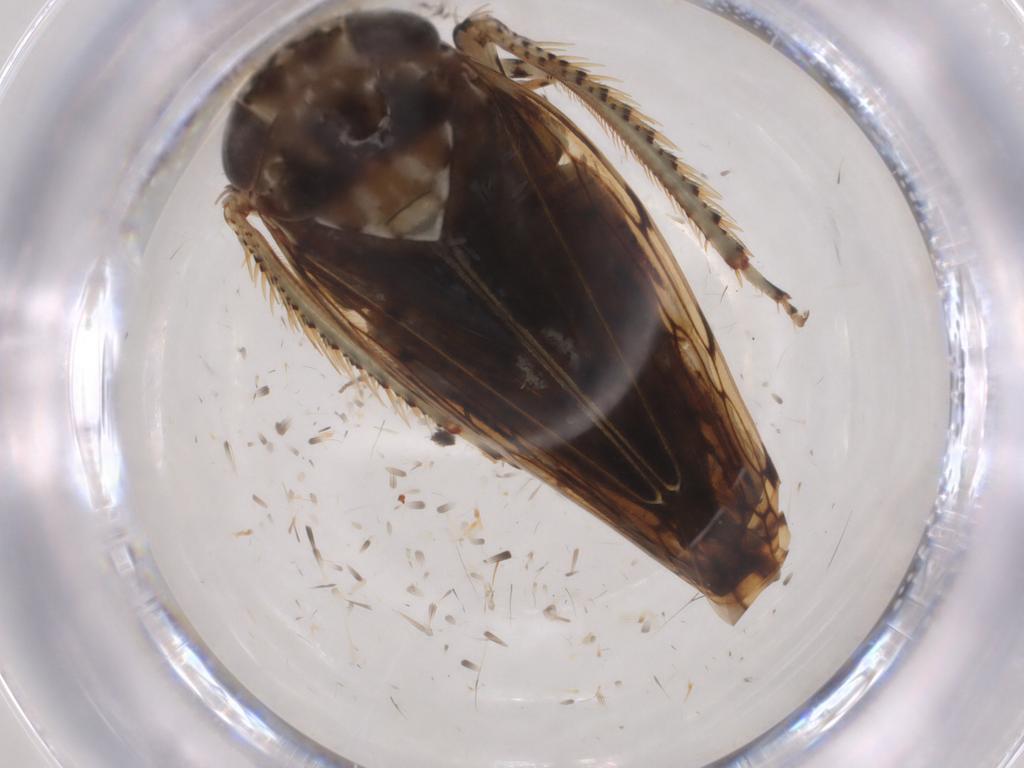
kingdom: Animalia
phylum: Arthropoda
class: Insecta
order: Hemiptera
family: Cicadellidae
